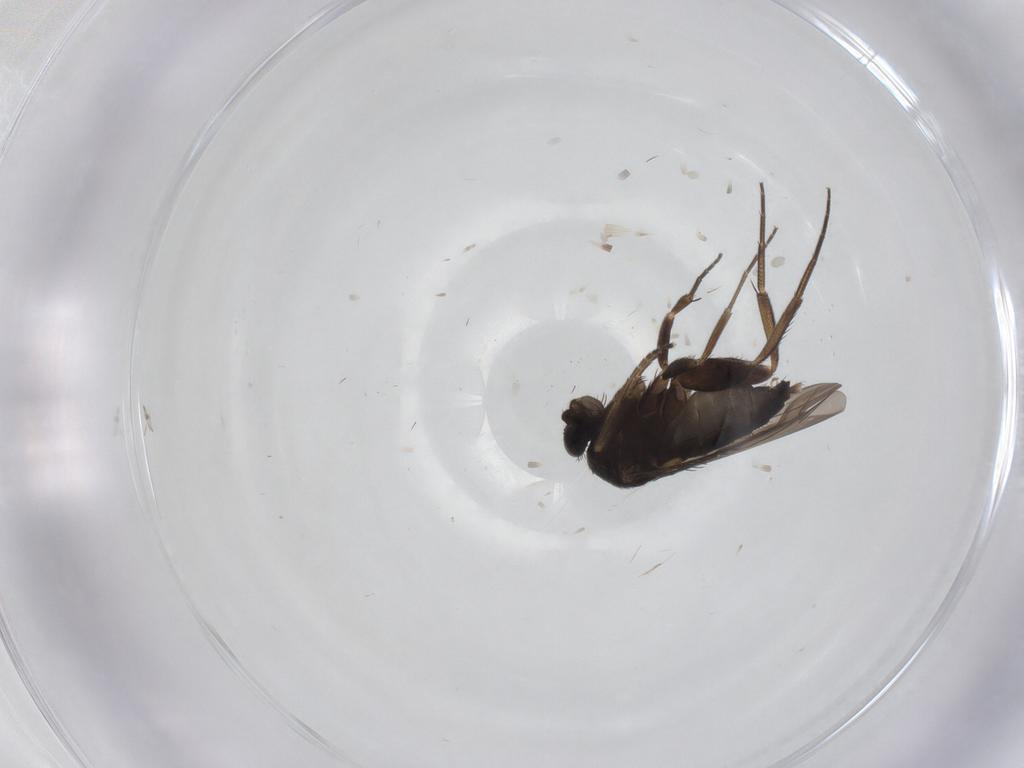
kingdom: Animalia
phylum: Arthropoda
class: Insecta
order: Diptera
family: Phoridae
